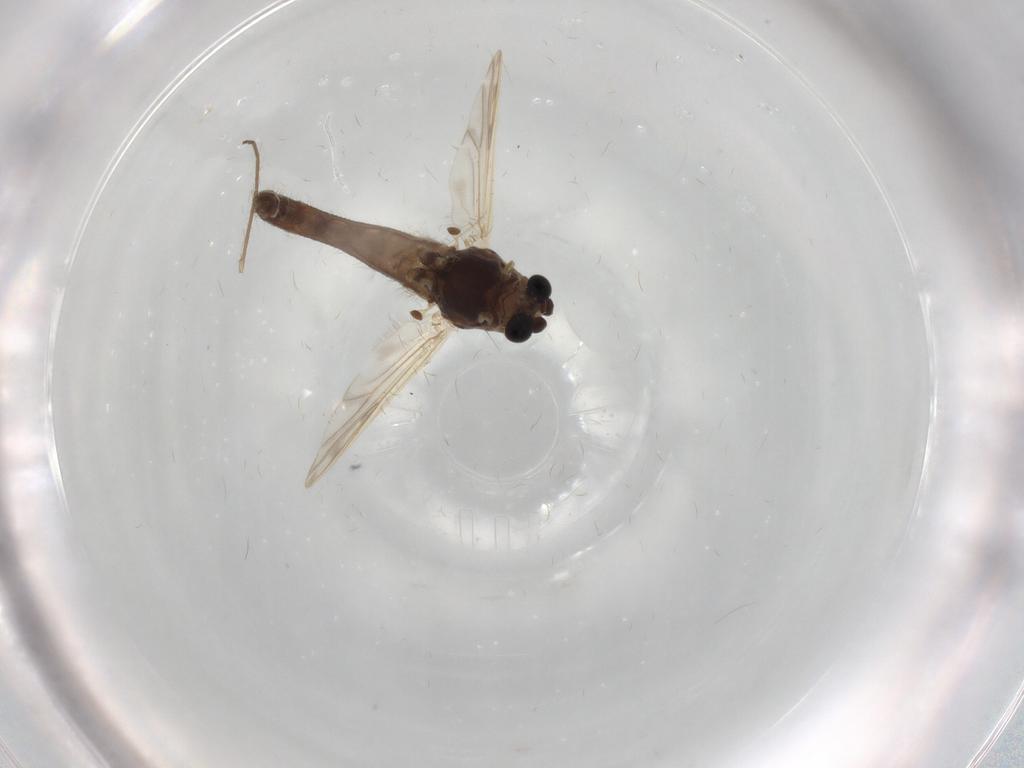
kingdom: Animalia
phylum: Arthropoda
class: Insecta
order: Diptera
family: Chironomidae
